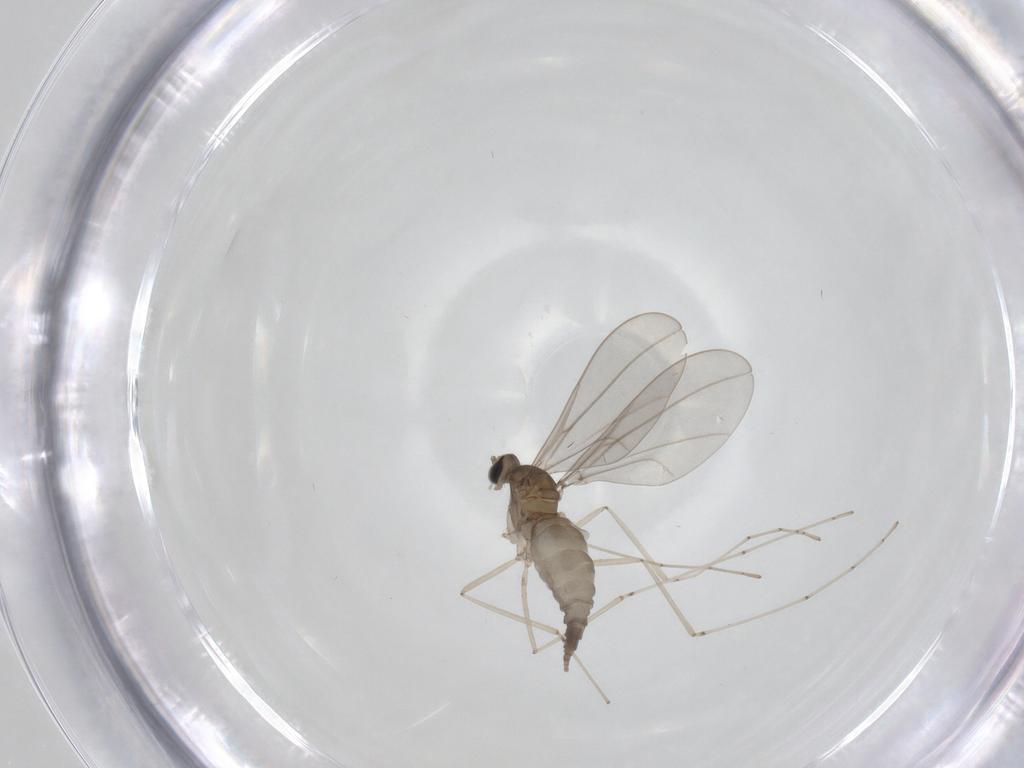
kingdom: Animalia
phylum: Arthropoda
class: Insecta
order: Diptera
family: Cecidomyiidae
